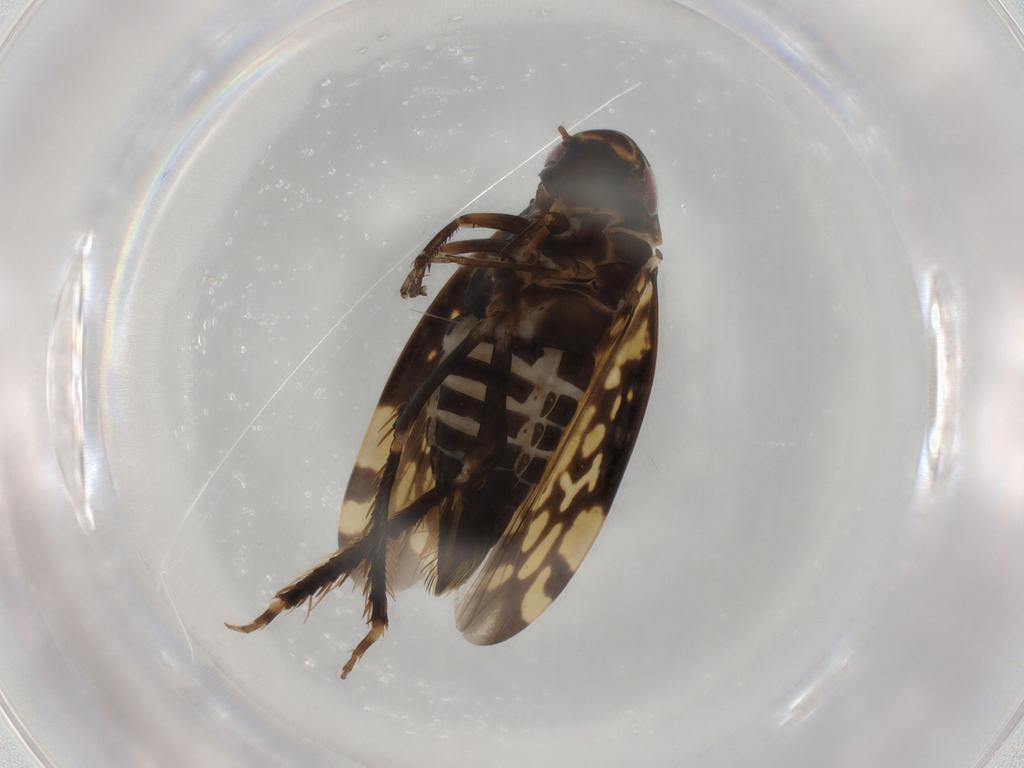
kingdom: Animalia
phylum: Arthropoda
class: Insecta
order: Hemiptera
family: Cicadellidae
